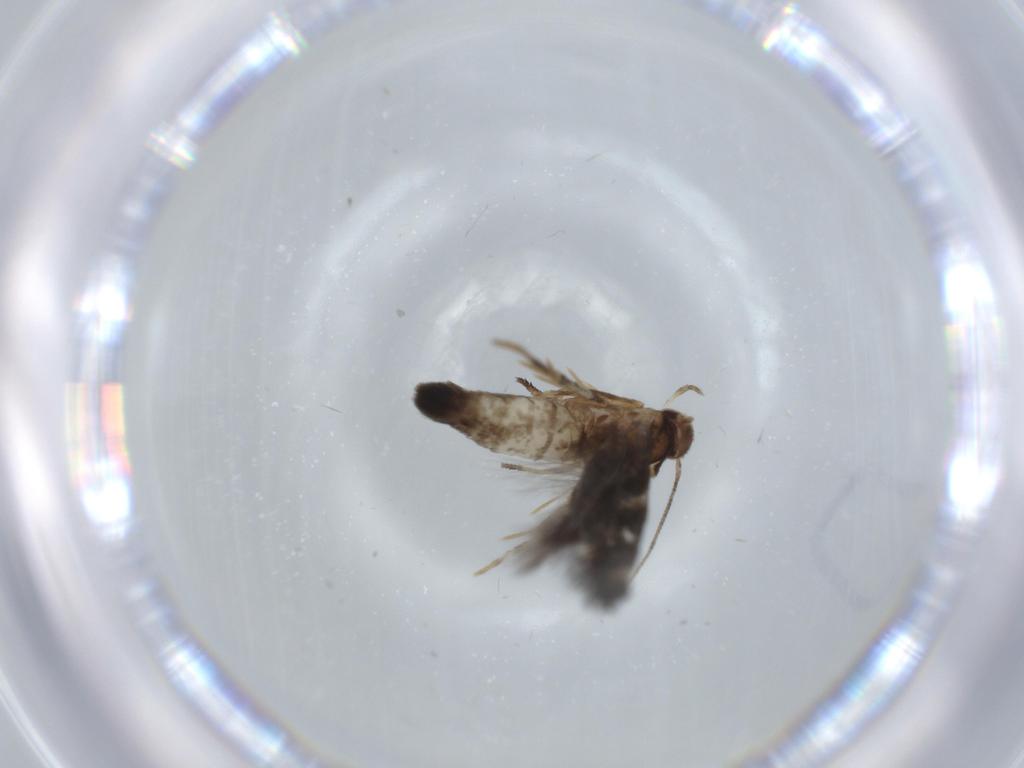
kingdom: Animalia
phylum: Arthropoda
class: Insecta
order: Lepidoptera
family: Cosmopterigidae
